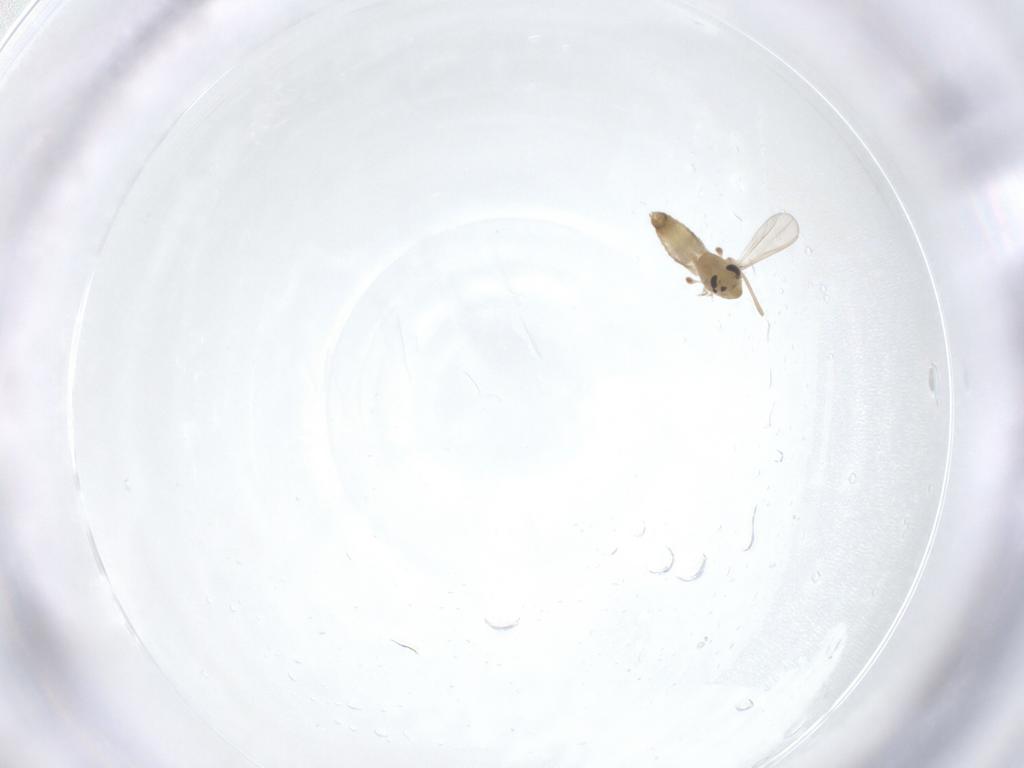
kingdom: Animalia
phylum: Arthropoda
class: Insecta
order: Diptera
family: Chironomidae
